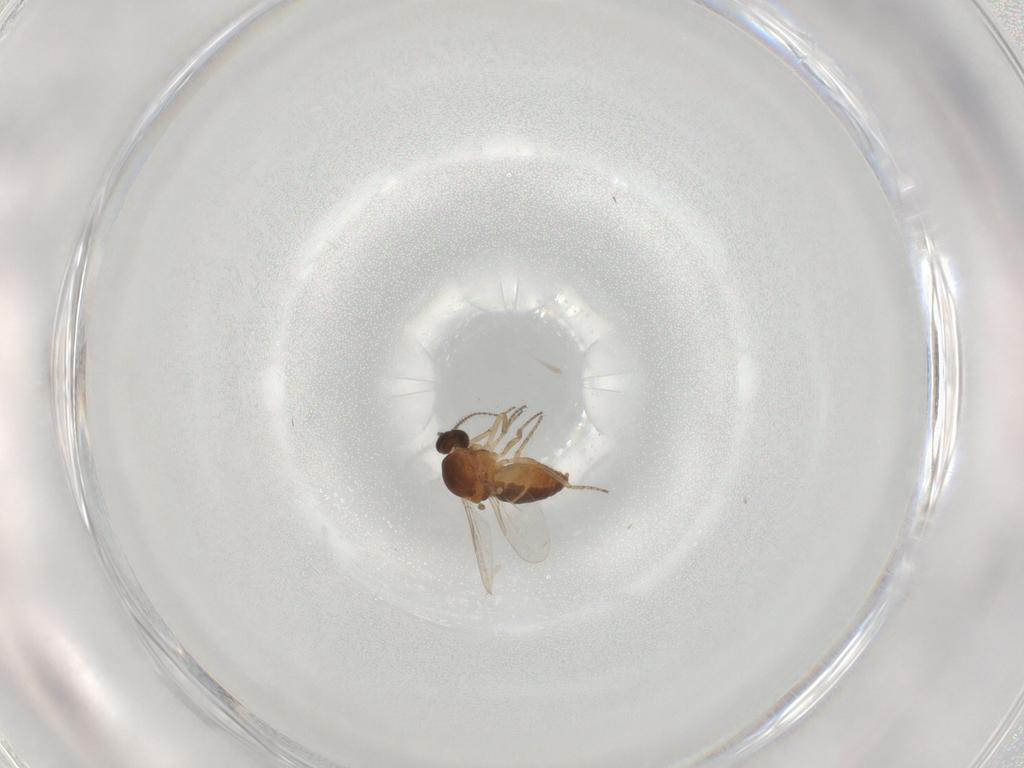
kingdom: Animalia
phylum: Arthropoda
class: Insecta
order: Diptera
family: Ceratopogonidae
